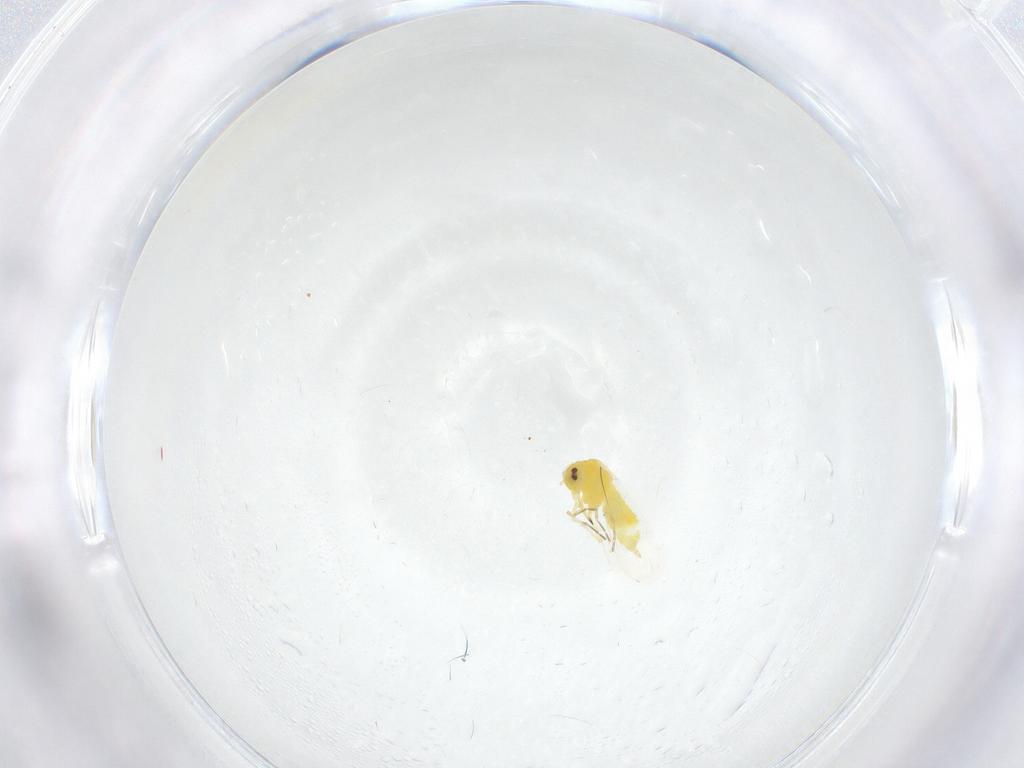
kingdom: Animalia
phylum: Arthropoda
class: Insecta
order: Hemiptera
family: Aleyrodidae
